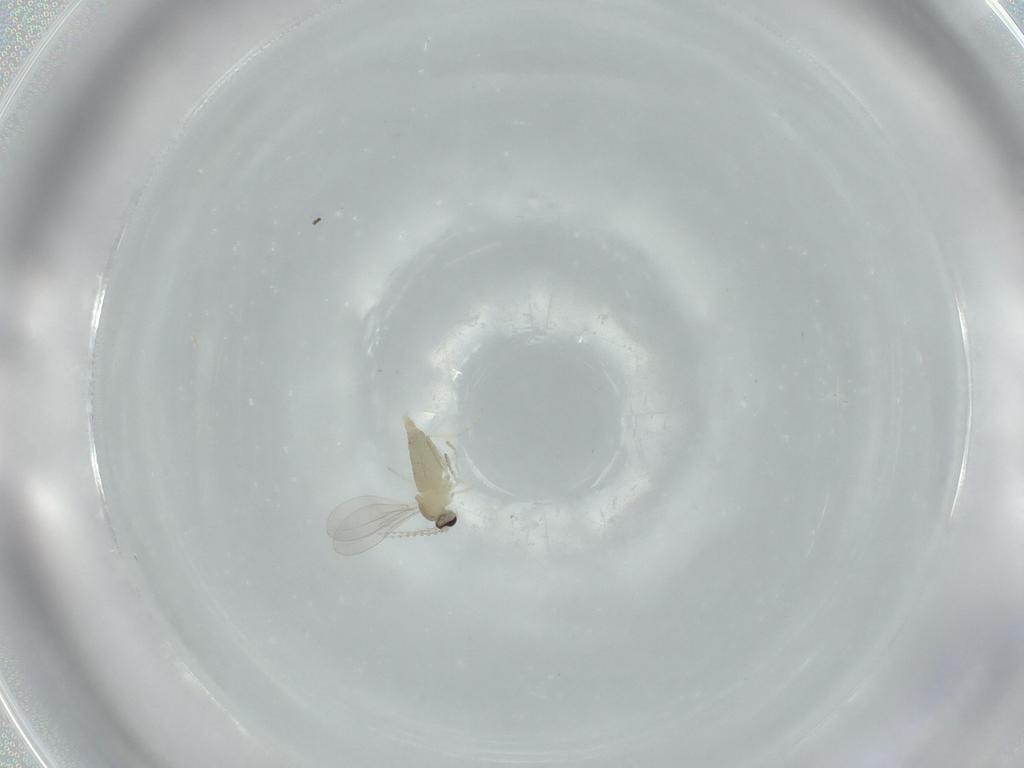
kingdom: Animalia
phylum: Arthropoda
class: Insecta
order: Diptera
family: Cecidomyiidae
